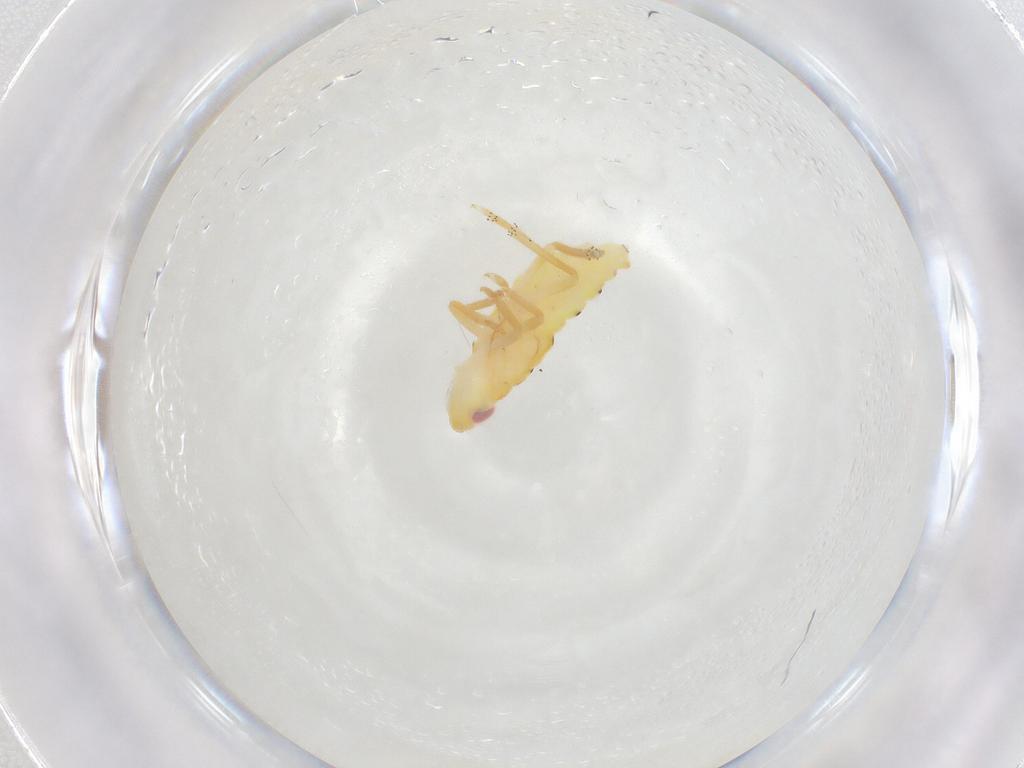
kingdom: Animalia
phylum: Arthropoda
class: Insecta
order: Hemiptera
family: Tropiduchidae
